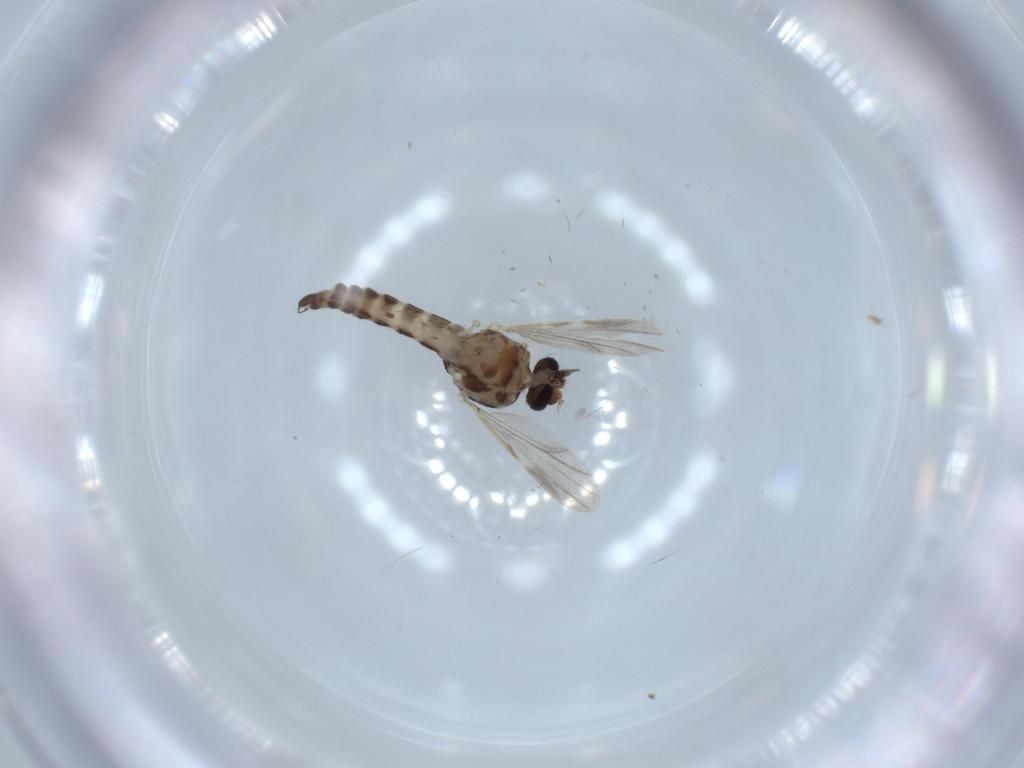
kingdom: Animalia
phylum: Arthropoda
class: Insecta
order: Diptera
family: Ceratopogonidae
